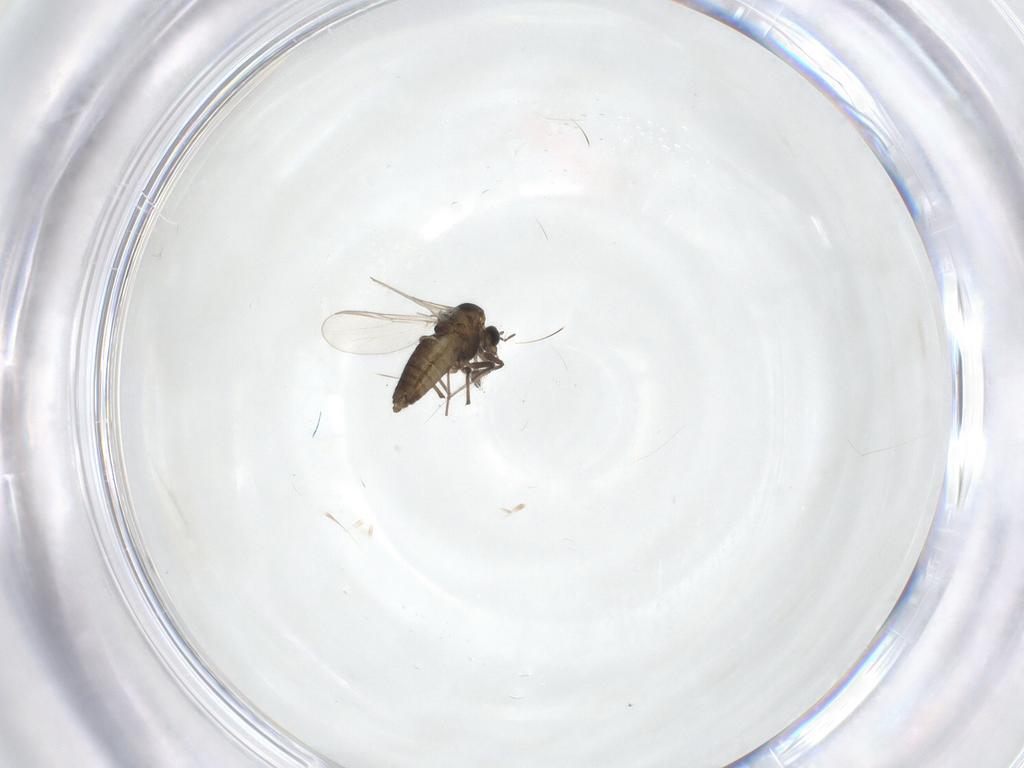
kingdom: Animalia
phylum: Arthropoda
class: Insecta
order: Diptera
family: Chironomidae
